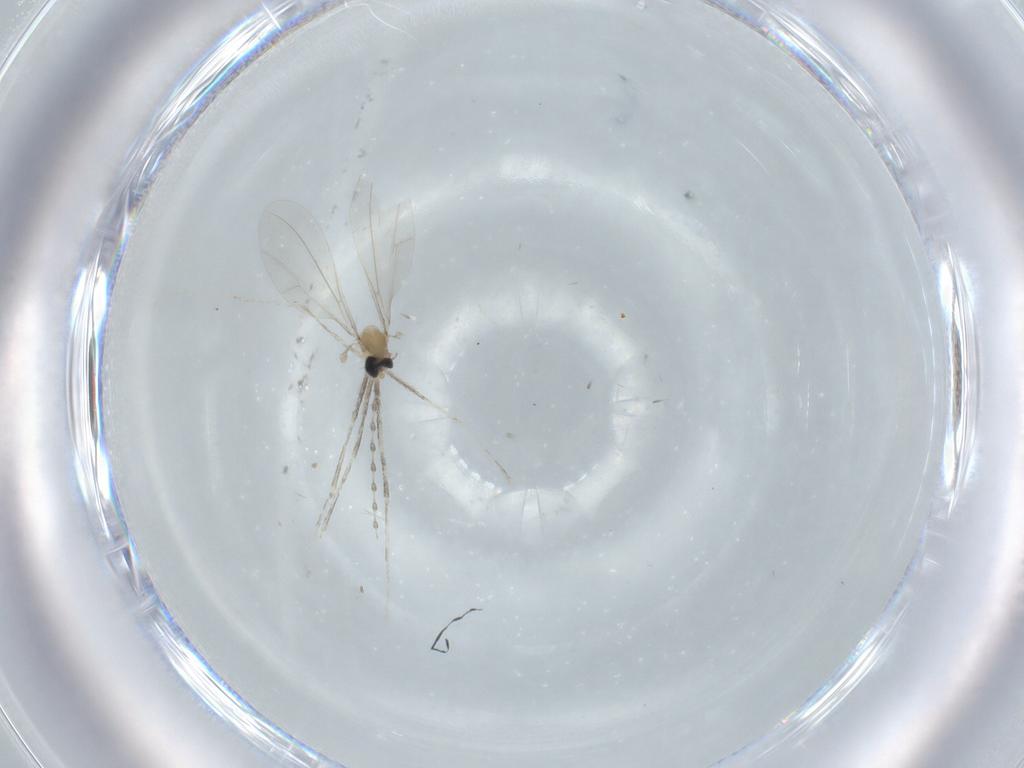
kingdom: Animalia
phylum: Arthropoda
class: Insecta
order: Diptera
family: Cecidomyiidae
